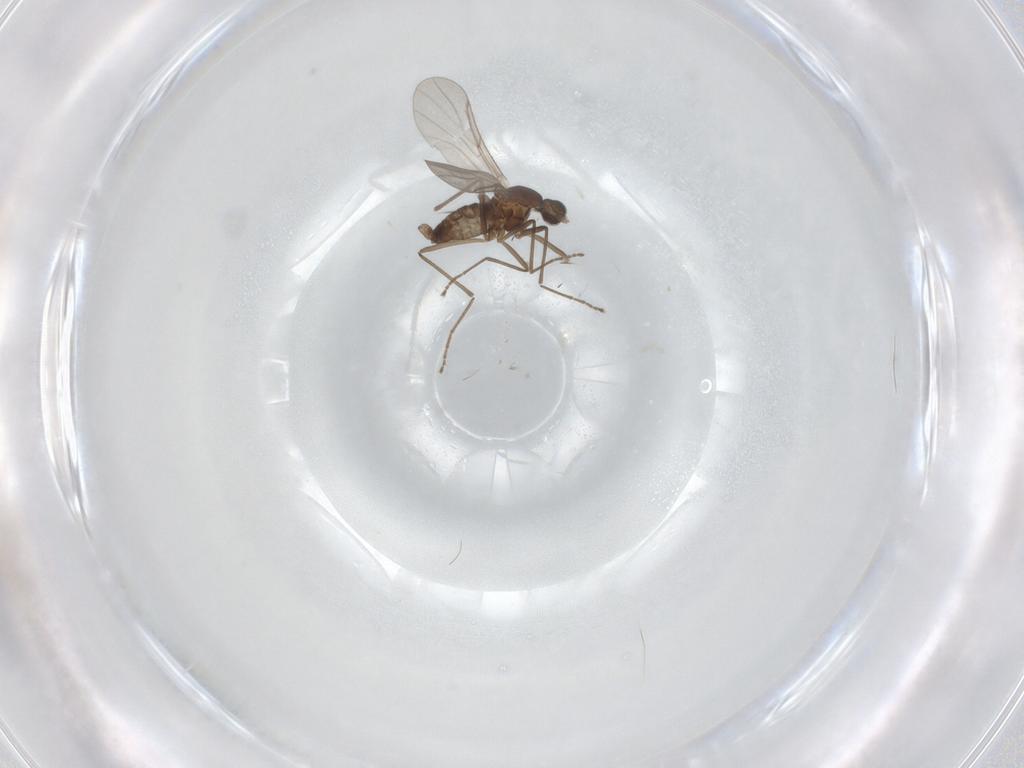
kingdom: Animalia
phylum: Arthropoda
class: Insecta
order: Diptera
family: Cecidomyiidae
